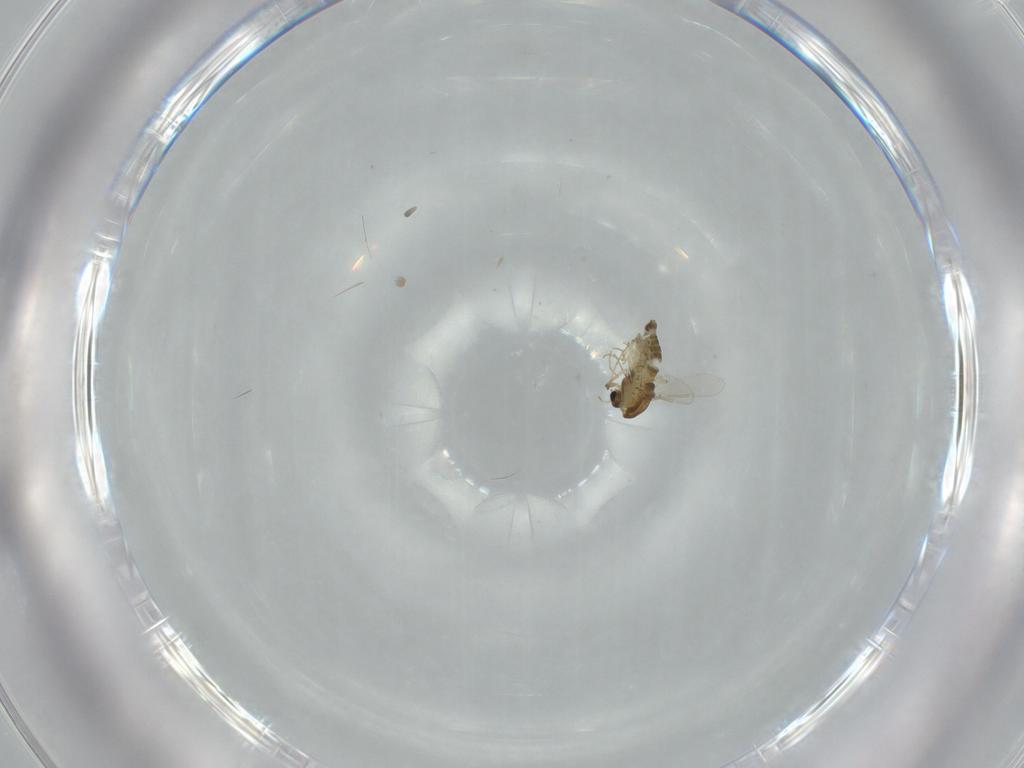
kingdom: Animalia
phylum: Arthropoda
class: Insecta
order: Diptera
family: Chironomidae
